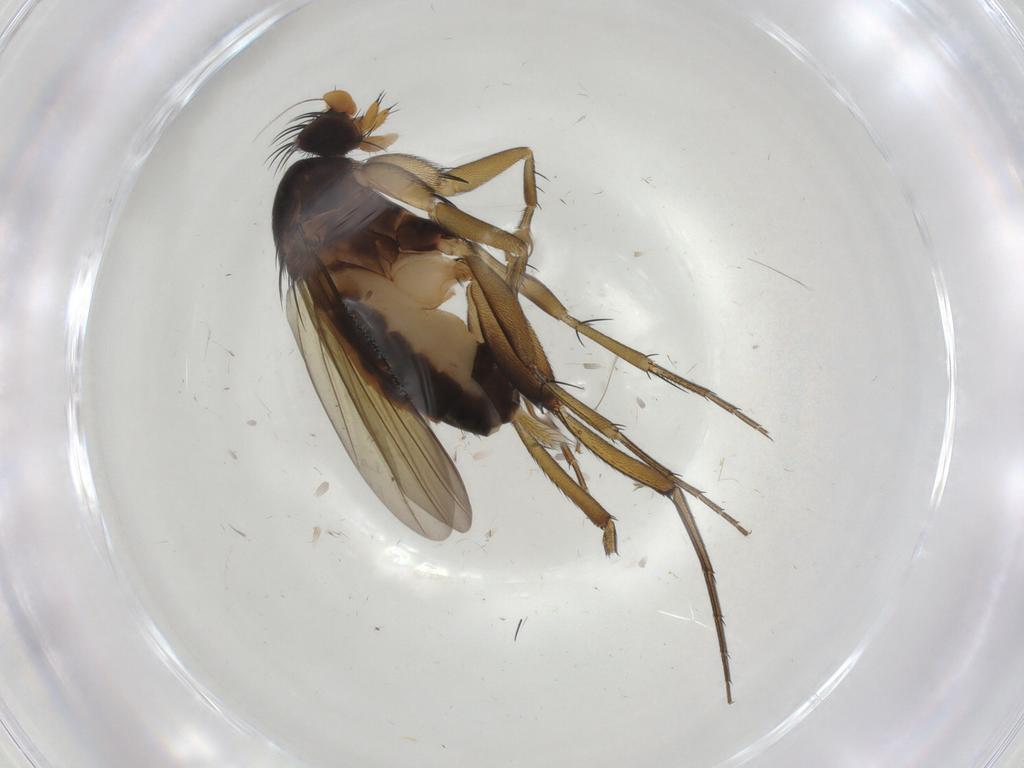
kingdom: Animalia
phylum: Arthropoda
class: Insecta
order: Diptera
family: Phoridae
